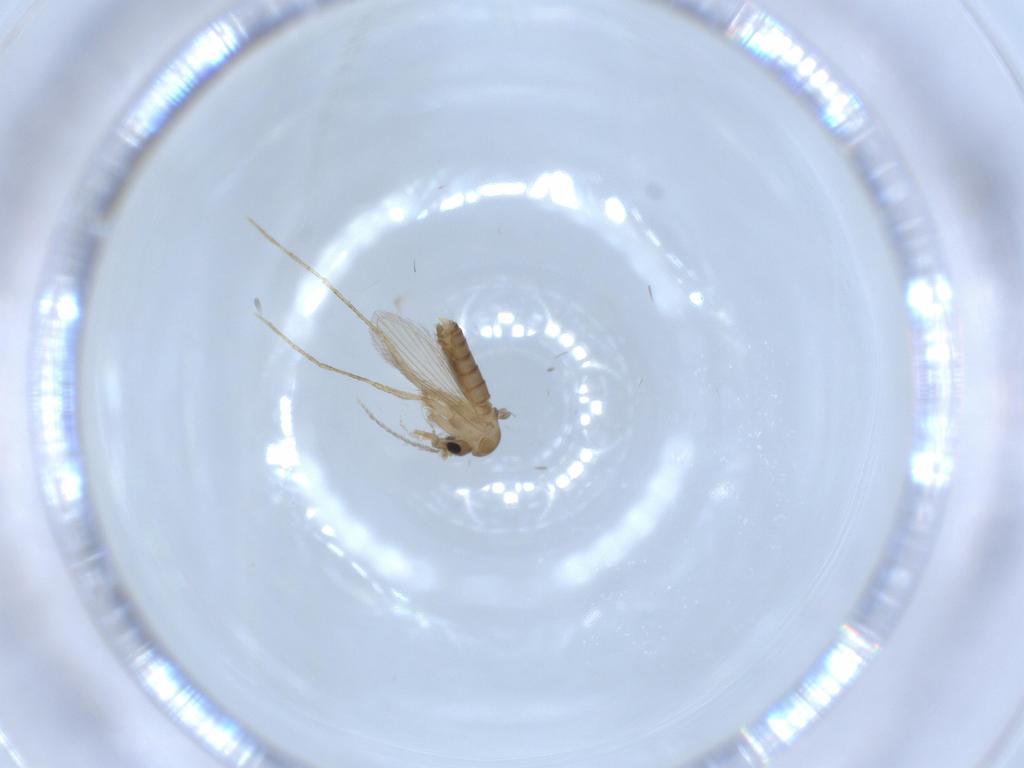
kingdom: Animalia
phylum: Arthropoda
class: Insecta
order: Diptera
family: Psychodidae
